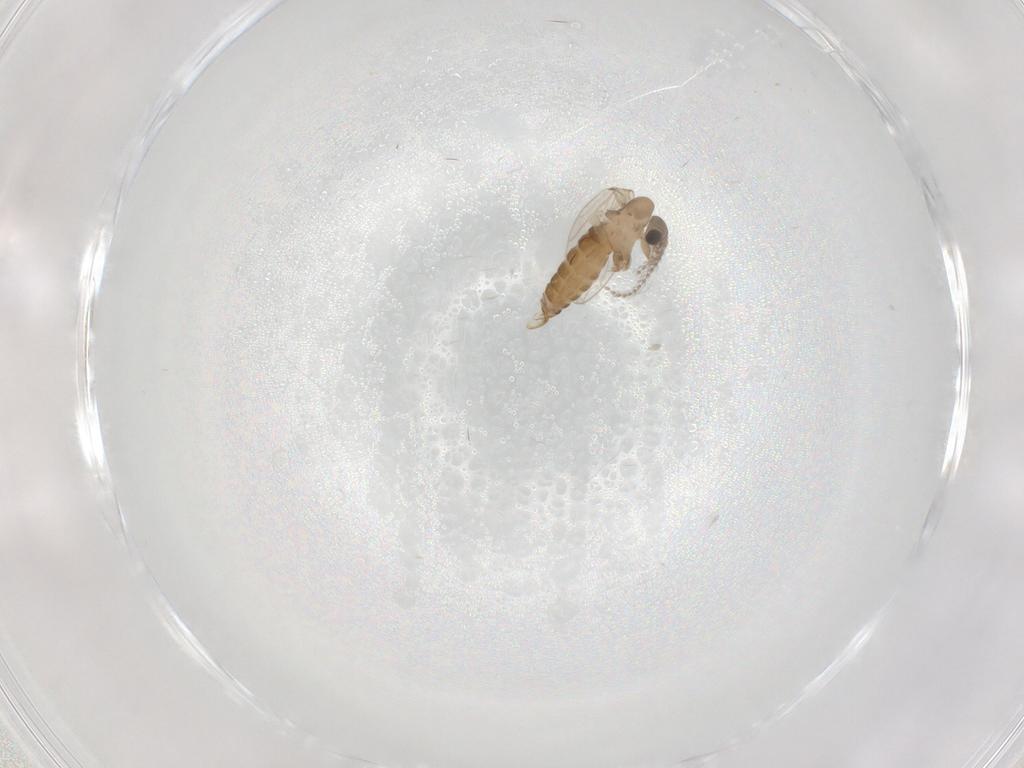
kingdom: Animalia
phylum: Arthropoda
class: Insecta
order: Diptera
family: Psychodidae
